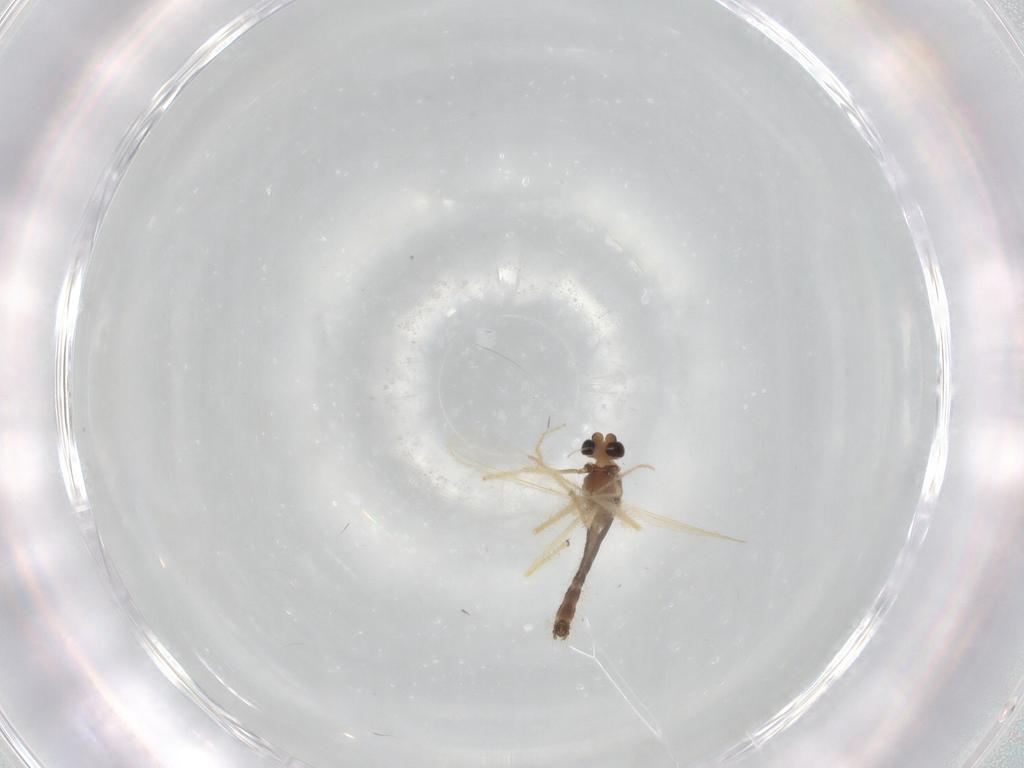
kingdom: Animalia
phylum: Arthropoda
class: Insecta
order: Diptera
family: Chironomidae
